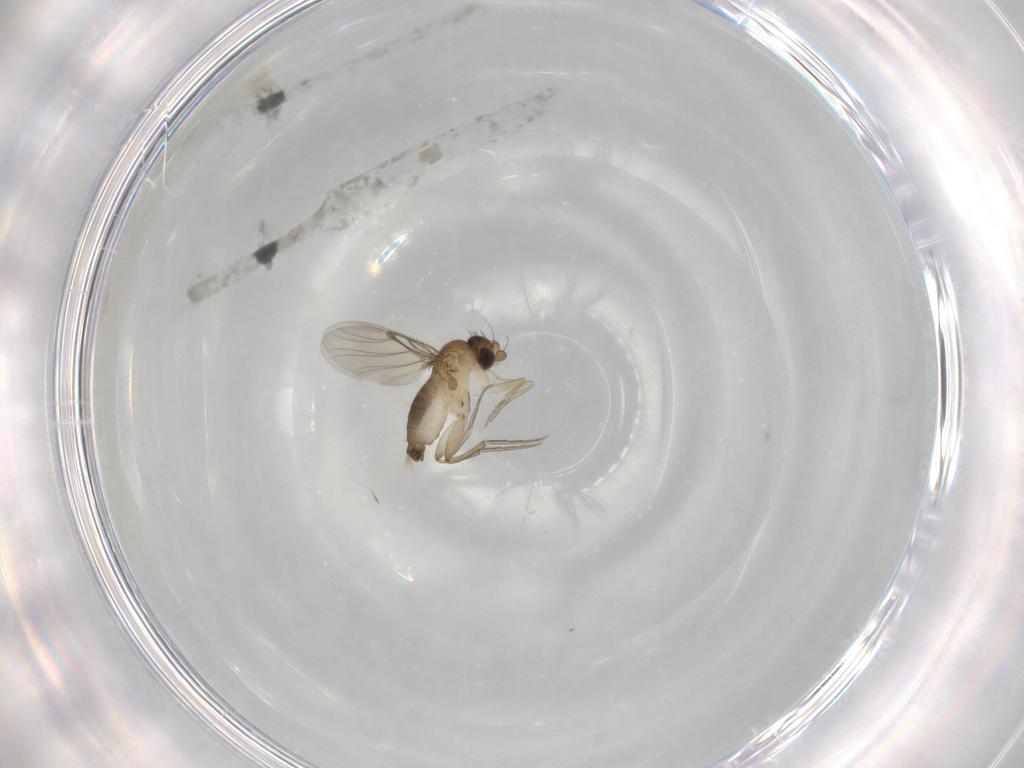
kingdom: Animalia
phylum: Arthropoda
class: Insecta
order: Diptera
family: Phoridae
